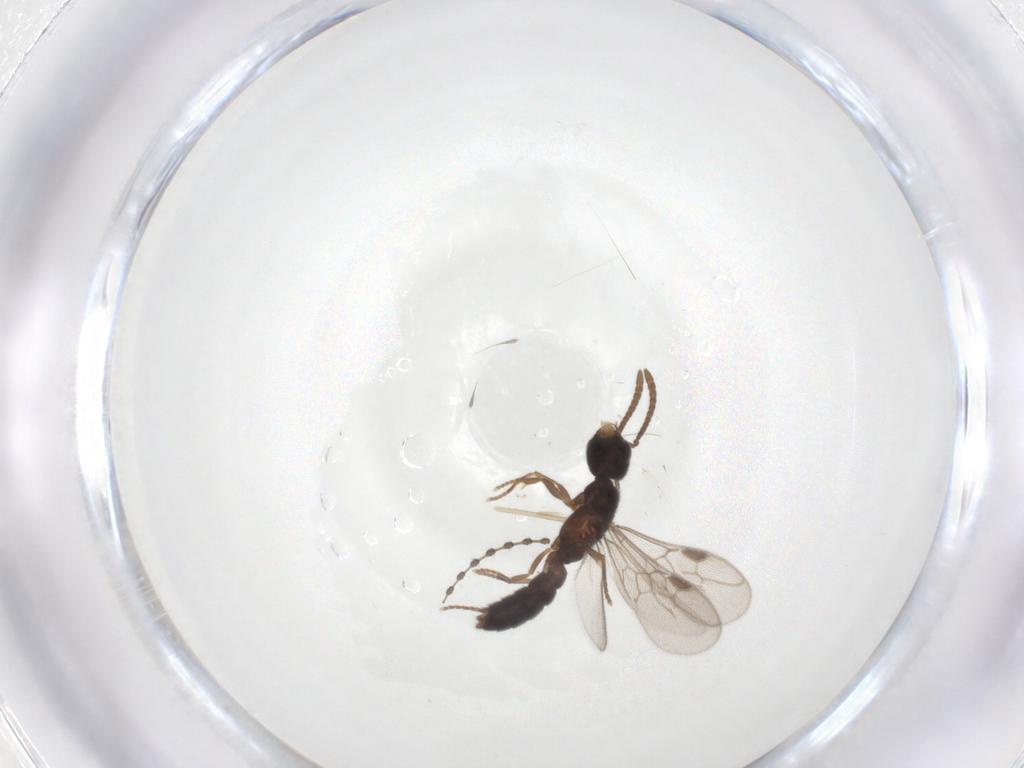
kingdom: Animalia
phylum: Arthropoda
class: Insecta
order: Hymenoptera
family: Formicidae
